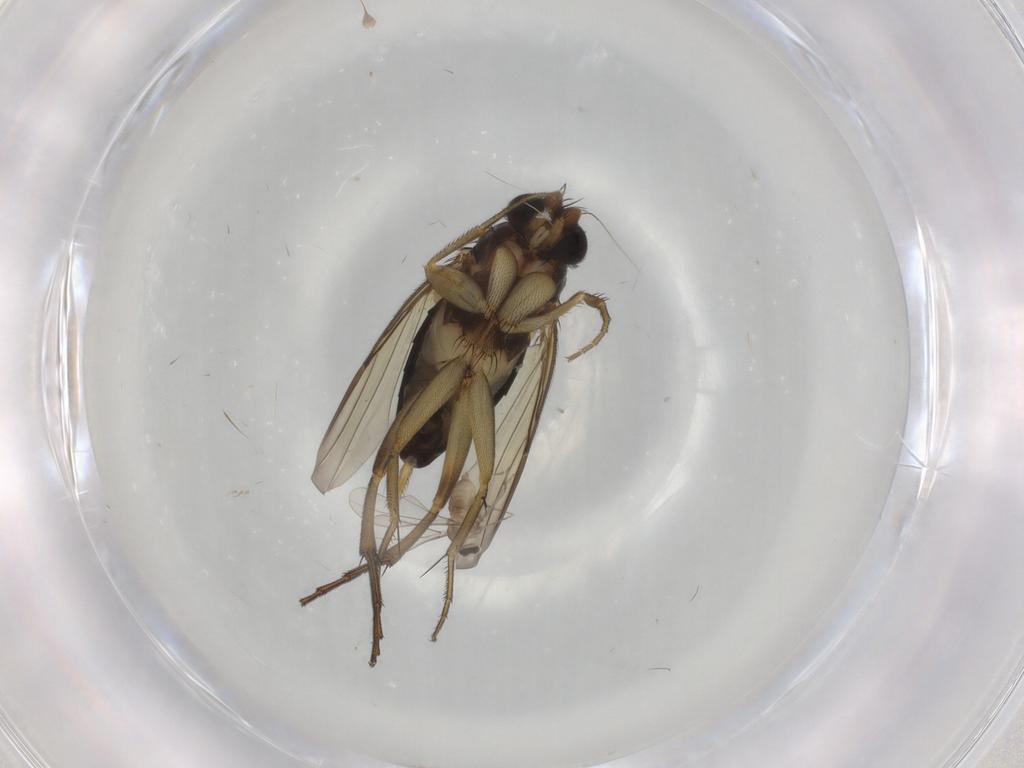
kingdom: Animalia
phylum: Arthropoda
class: Insecta
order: Diptera
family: Phoridae
